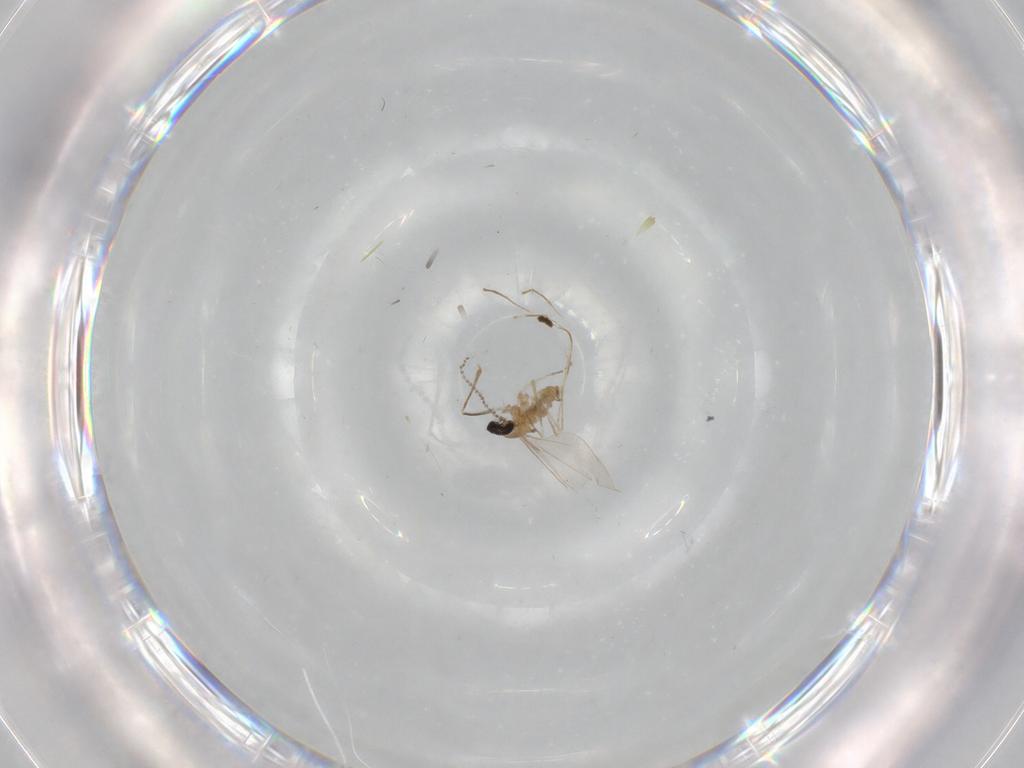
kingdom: Animalia
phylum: Arthropoda
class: Insecta
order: Diptera
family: Cecidomyiidae
